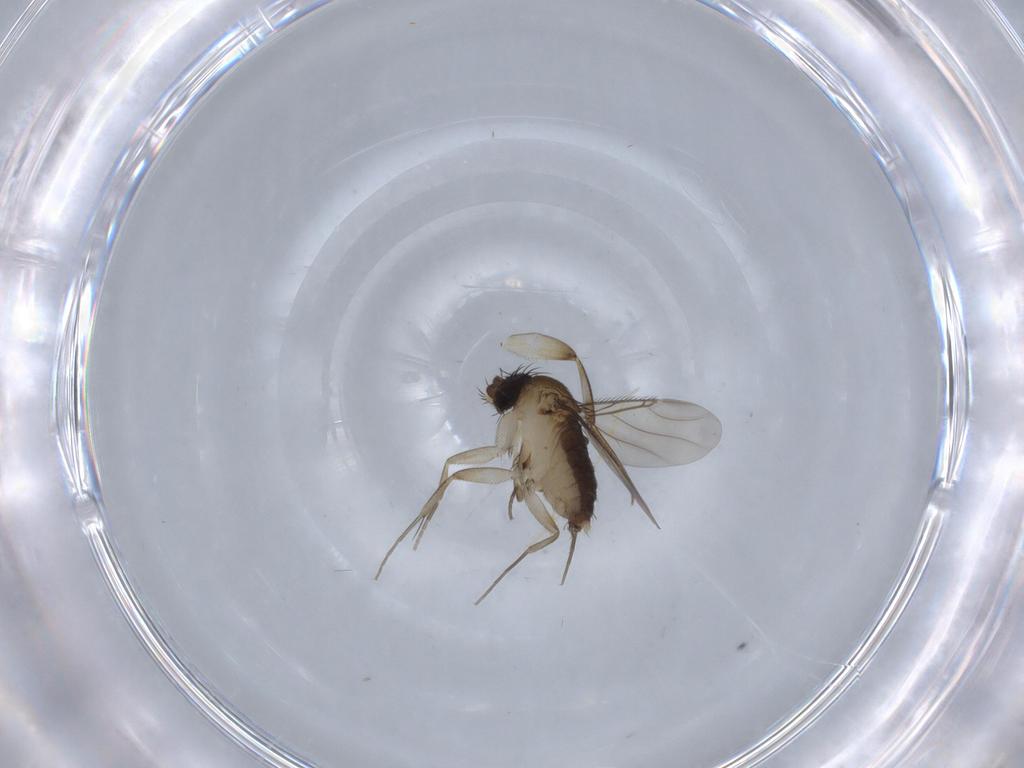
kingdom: Animalia
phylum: Arthropoda
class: Insecta
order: Diptera
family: Phoridae
